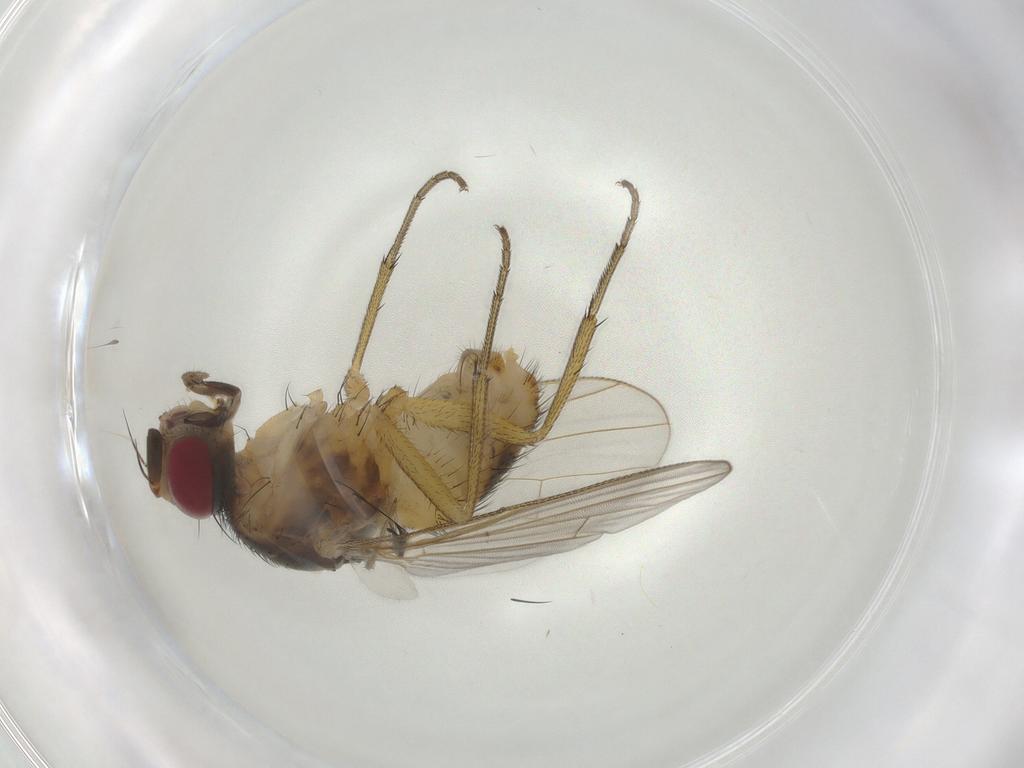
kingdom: Animalia
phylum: Arthropoda
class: Insecta
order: Diptera
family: Muscidae
